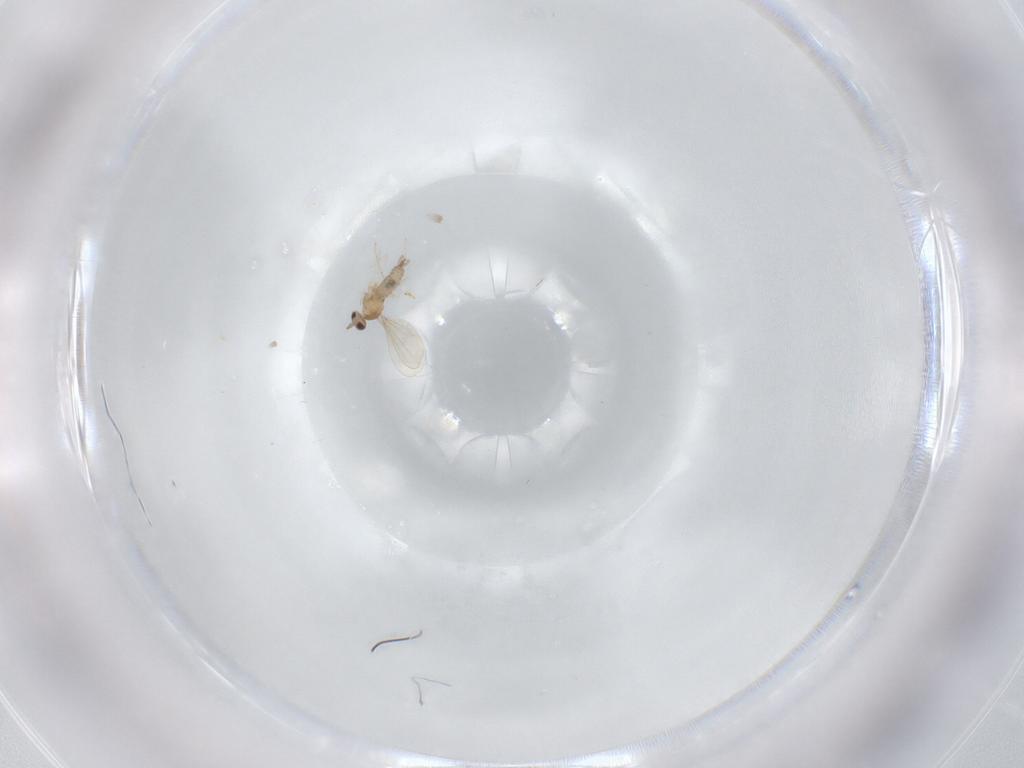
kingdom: Animalia
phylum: Arthropoda
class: Insecta
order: Diptera
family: Cecidomyiidae
